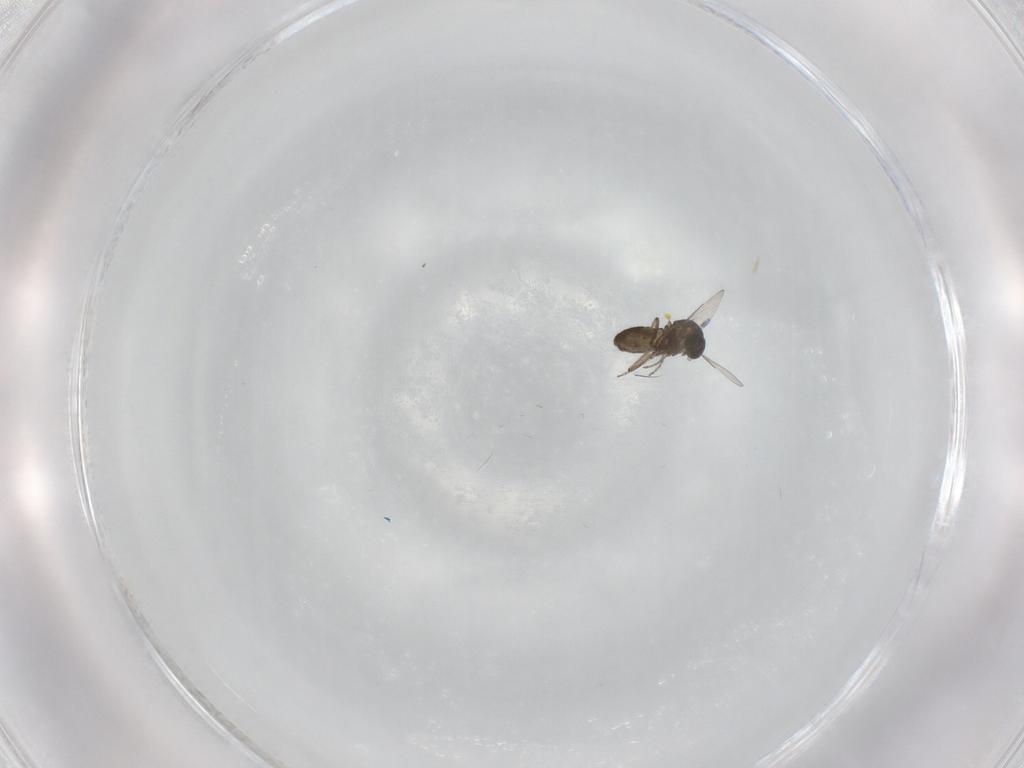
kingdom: Animalia
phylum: Arthropoda
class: Insecta
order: Diptera
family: Ceratopogonidae
